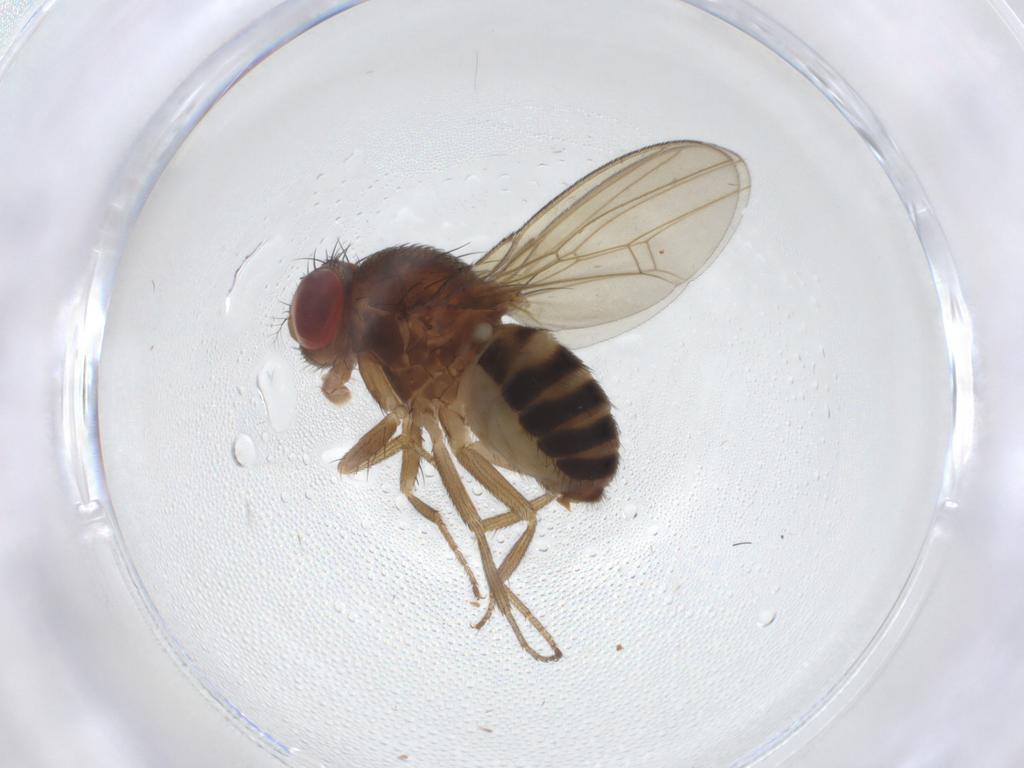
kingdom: Animalia
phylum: Arthropoda
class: Insecta
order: Diptera
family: Drosophilidae
